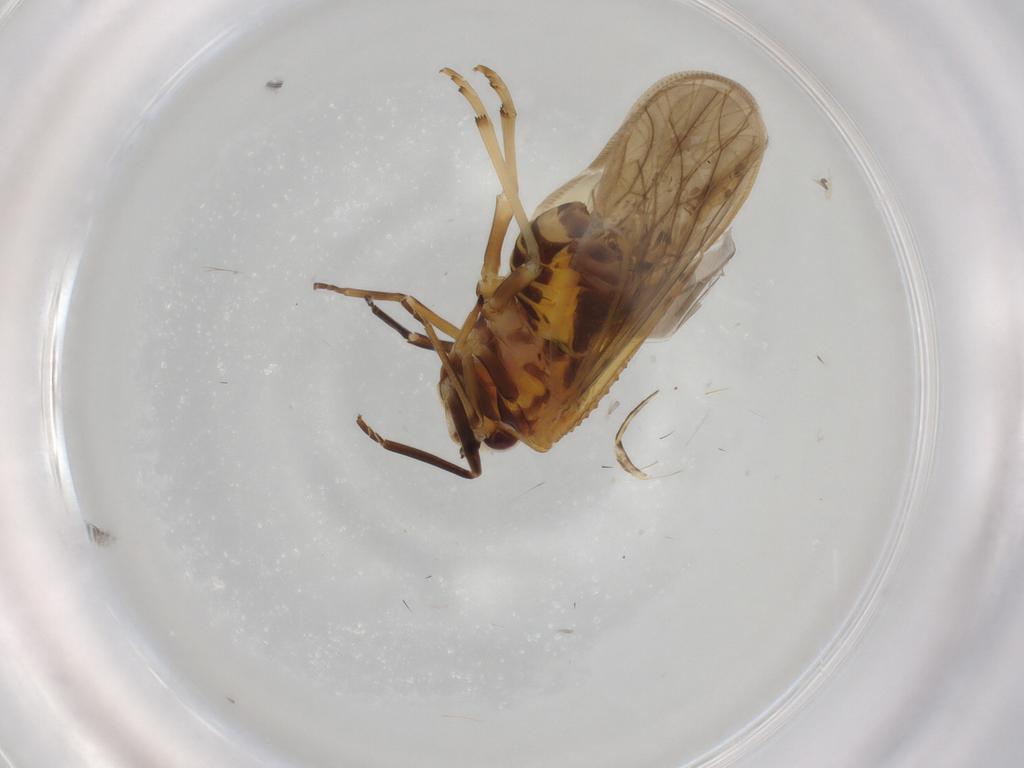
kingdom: Animalia
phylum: Arthropoda
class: Insecta
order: Hemiptera
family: Meenoplidae
